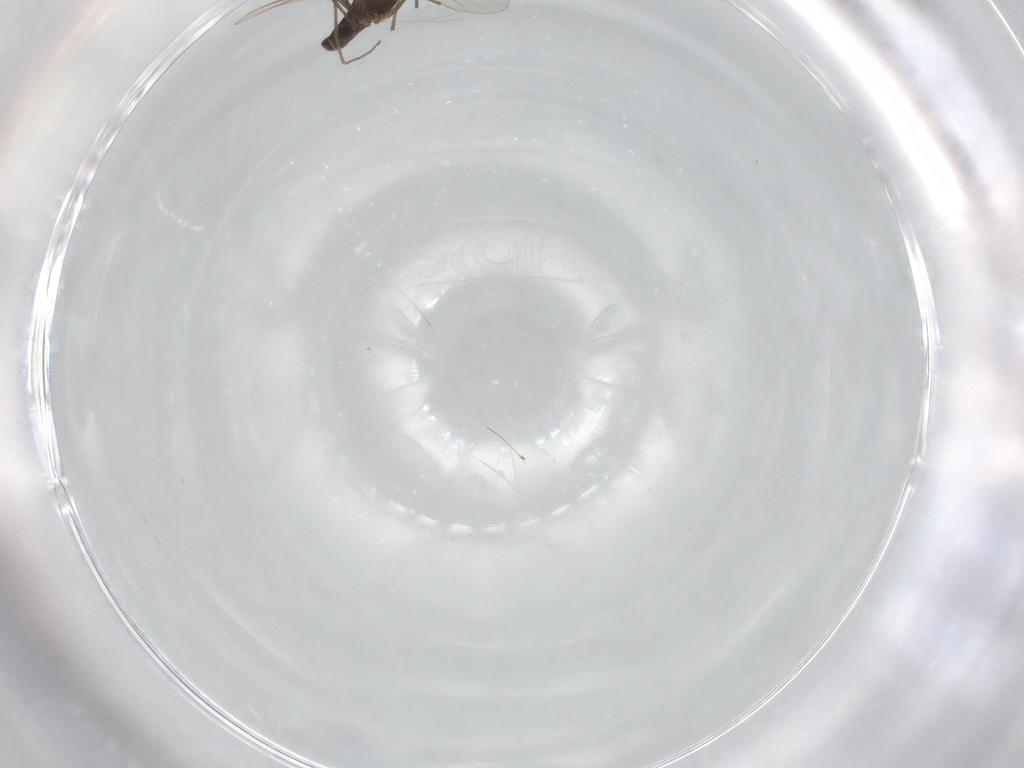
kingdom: Animalia
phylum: Arthropoda
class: Insecta
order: Diptera
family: Chironomidae
